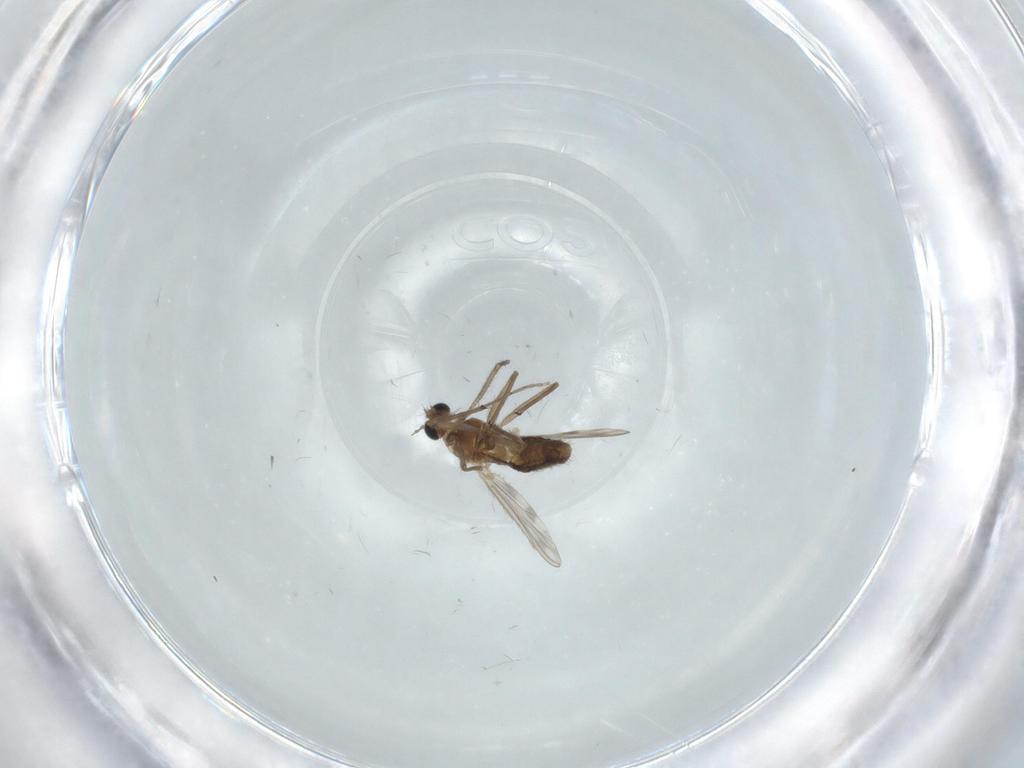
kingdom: Animalia
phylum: Arthropoda
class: Insecta
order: Diptera
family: Chironomidae
